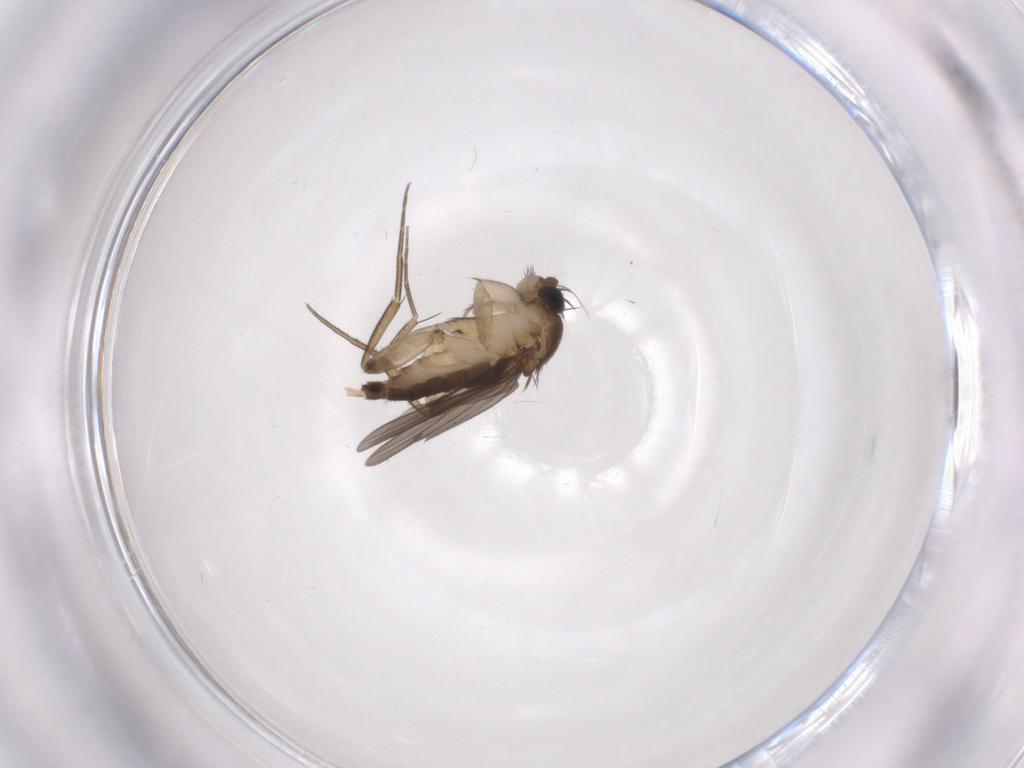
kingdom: Animalia
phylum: Arthropoda
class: Insecta
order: Diptera
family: Phoridae
